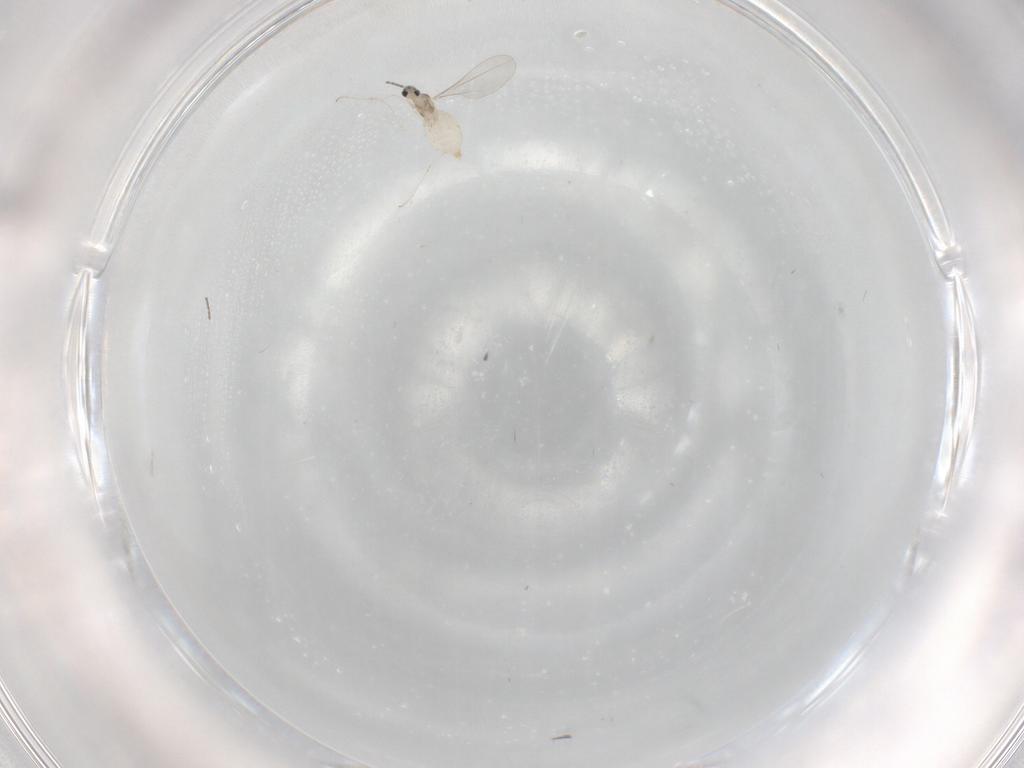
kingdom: Animalia
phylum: Arthropoda
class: Insecta
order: Diptera
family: Cecidomyiidae
